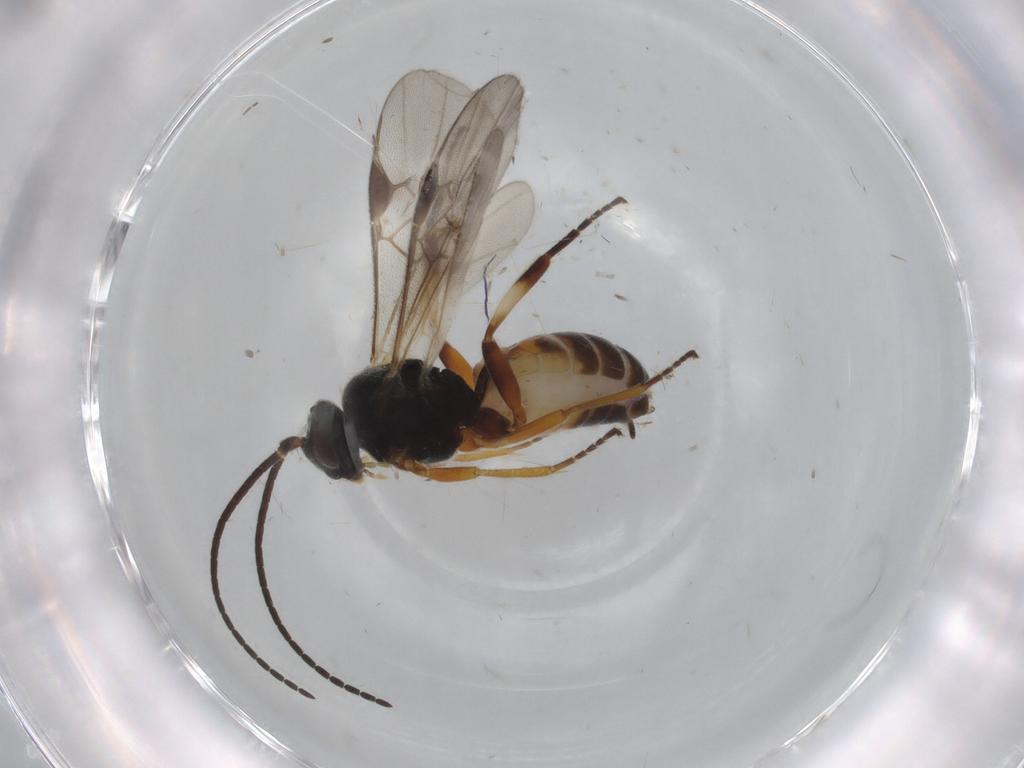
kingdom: Animalia
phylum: Arthropoda
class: Insecta
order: Hymenoptera
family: Braconidae
